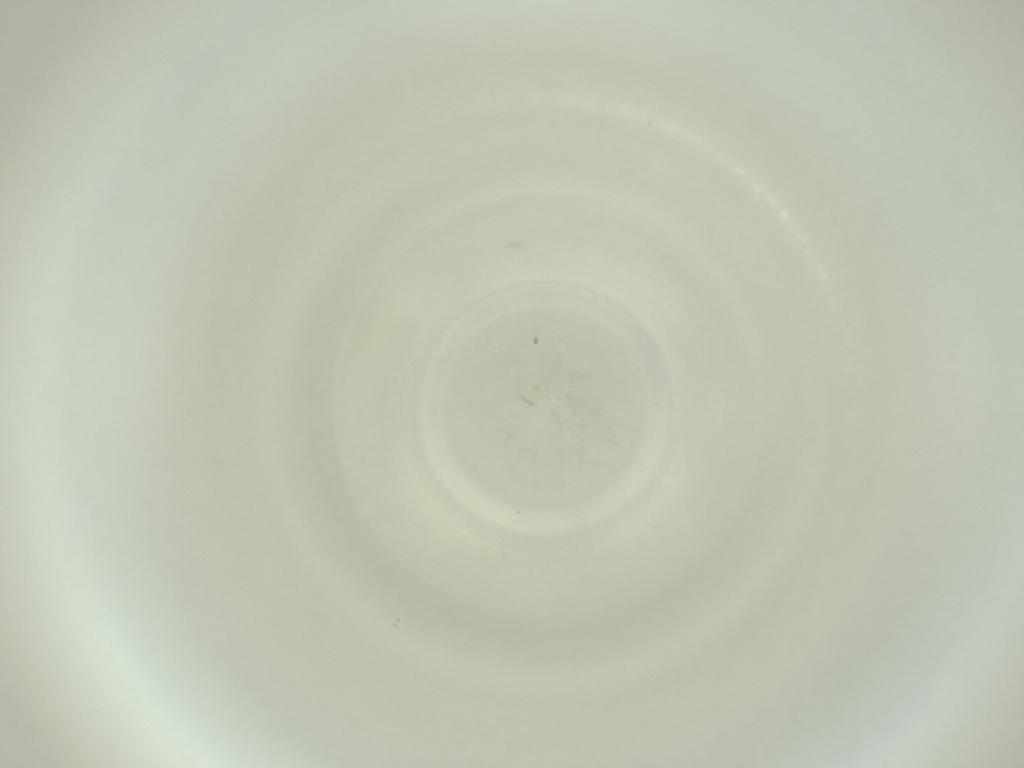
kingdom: Animalia
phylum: Arthropoda
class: Insecta
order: Diptera
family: Cecidomyiidae
